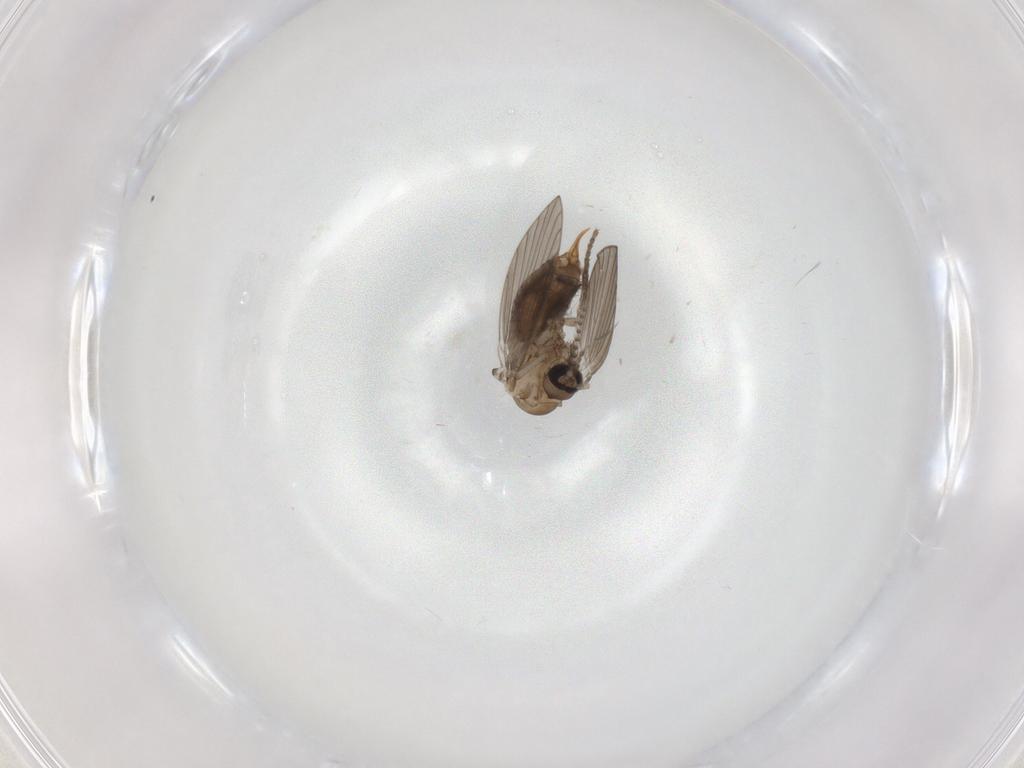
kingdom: Animalia
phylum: Arthropoda
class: Insecta
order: Diptera
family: Psychodidae
